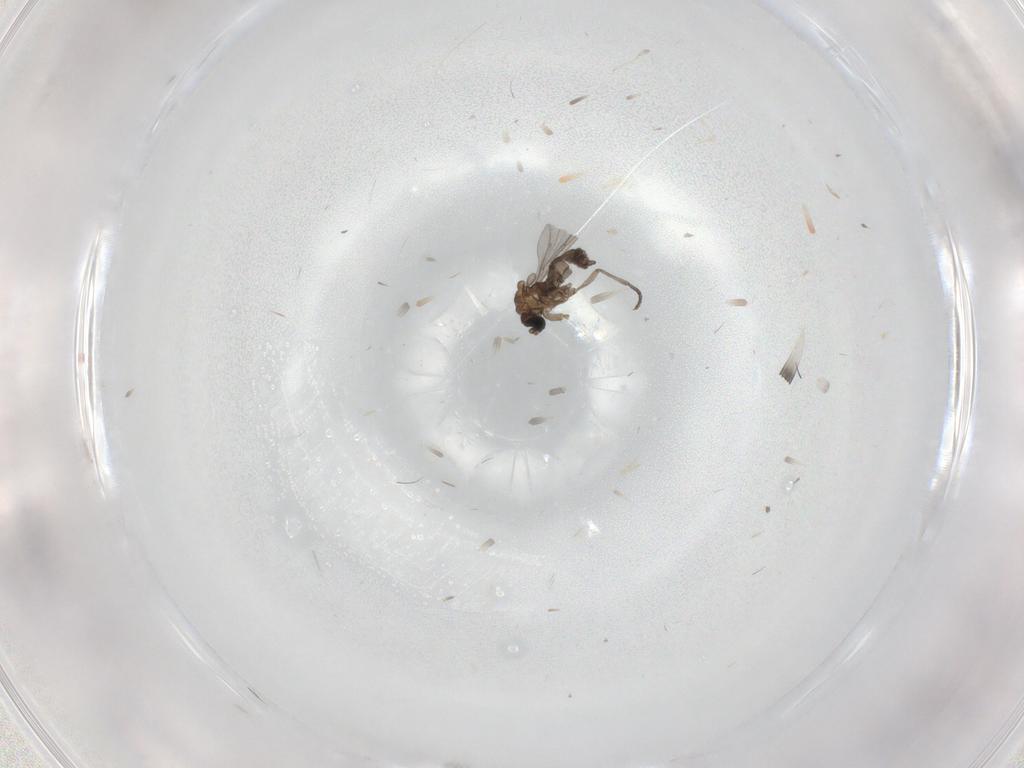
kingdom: Animalia
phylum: Arthropoda
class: Insecta
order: Diptera
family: Sciaridae
